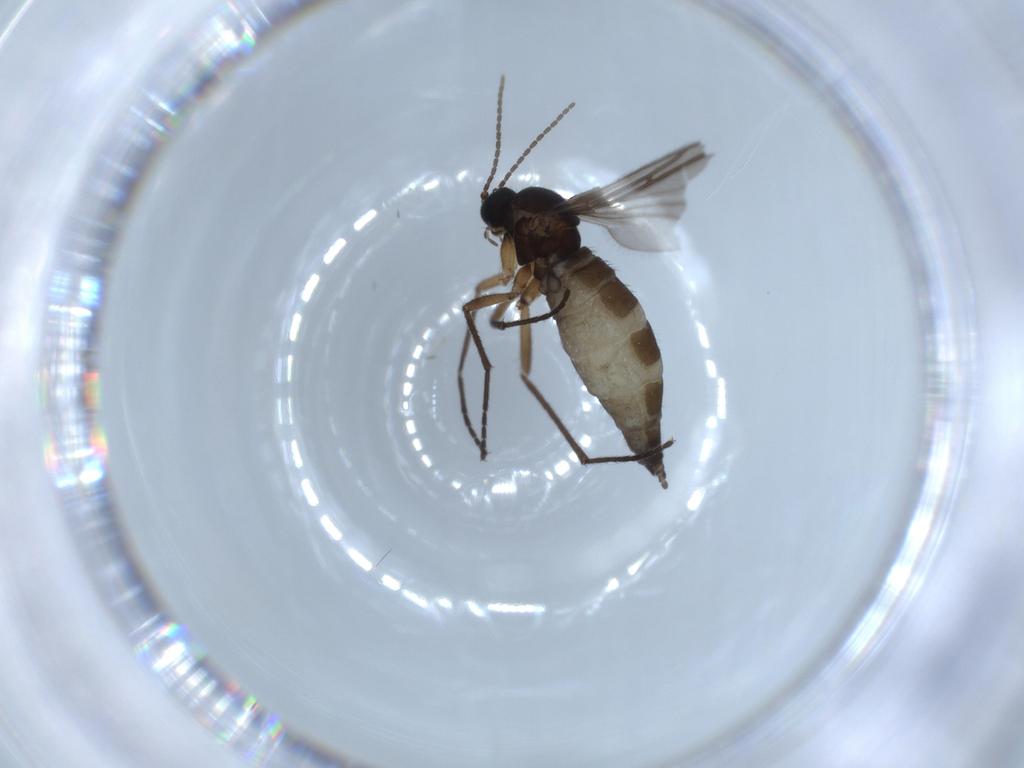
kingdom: Animalia
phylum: Arthropoda
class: Insecta
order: Diptera
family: Sciaridae
